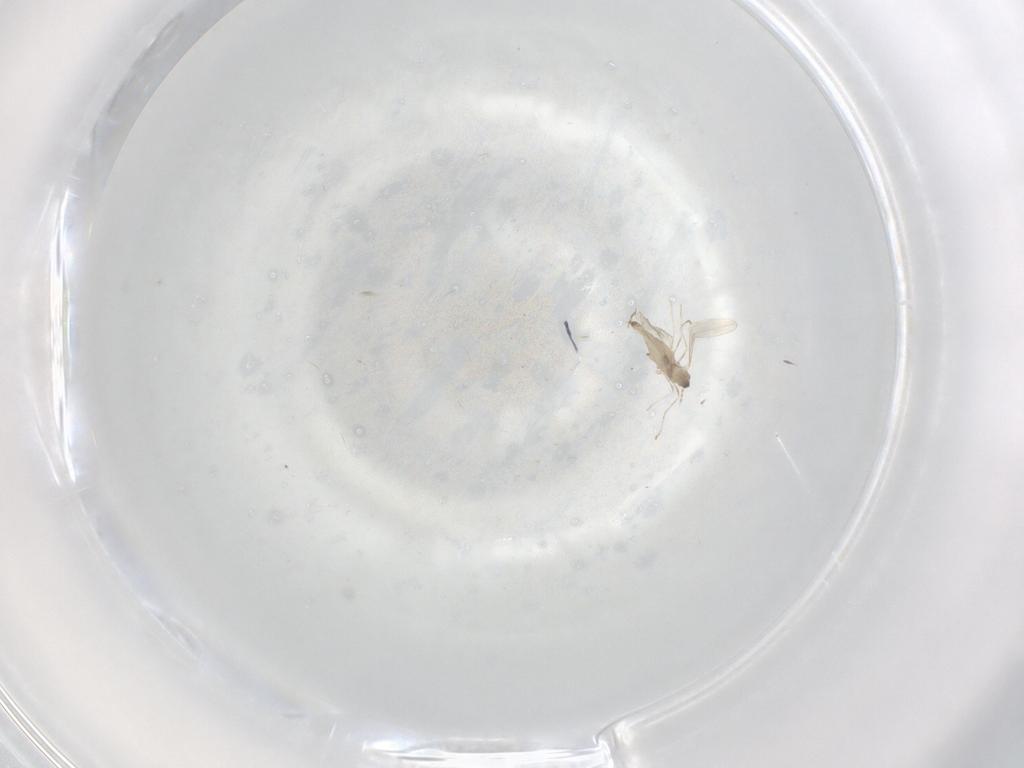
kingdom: Animalia
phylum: Arthropoda
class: Insecta
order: Diptera
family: Cecidomyiidae
